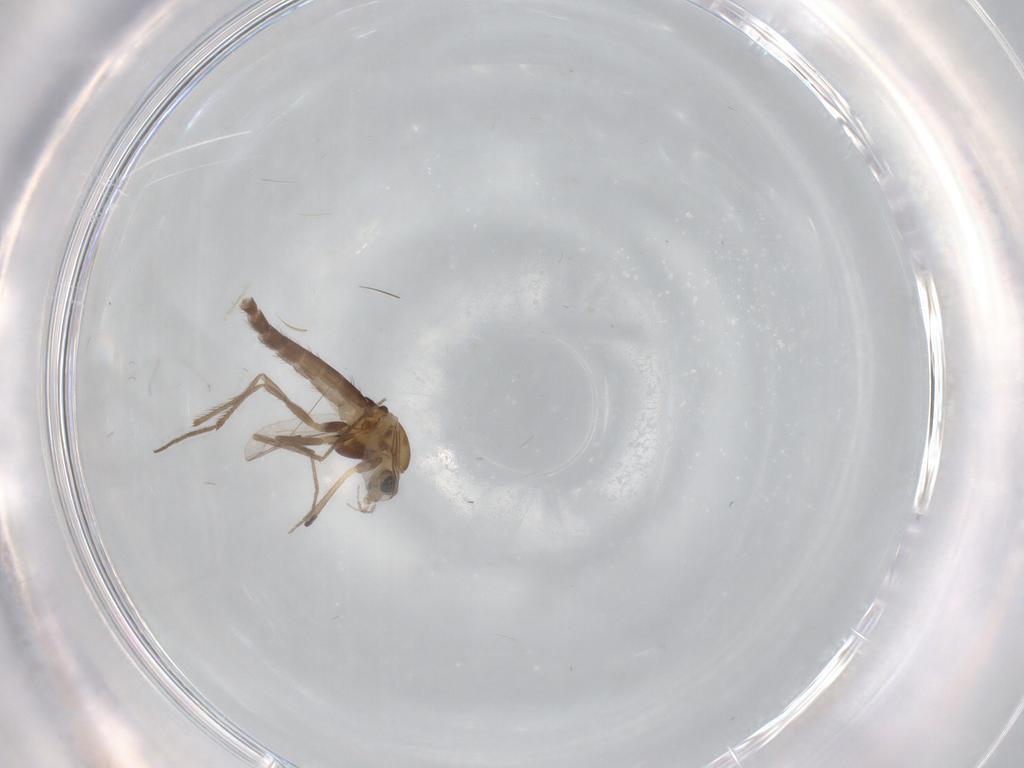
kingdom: Animalia
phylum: Arthropoda
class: Insecta
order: Diptera
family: Chironomidae
